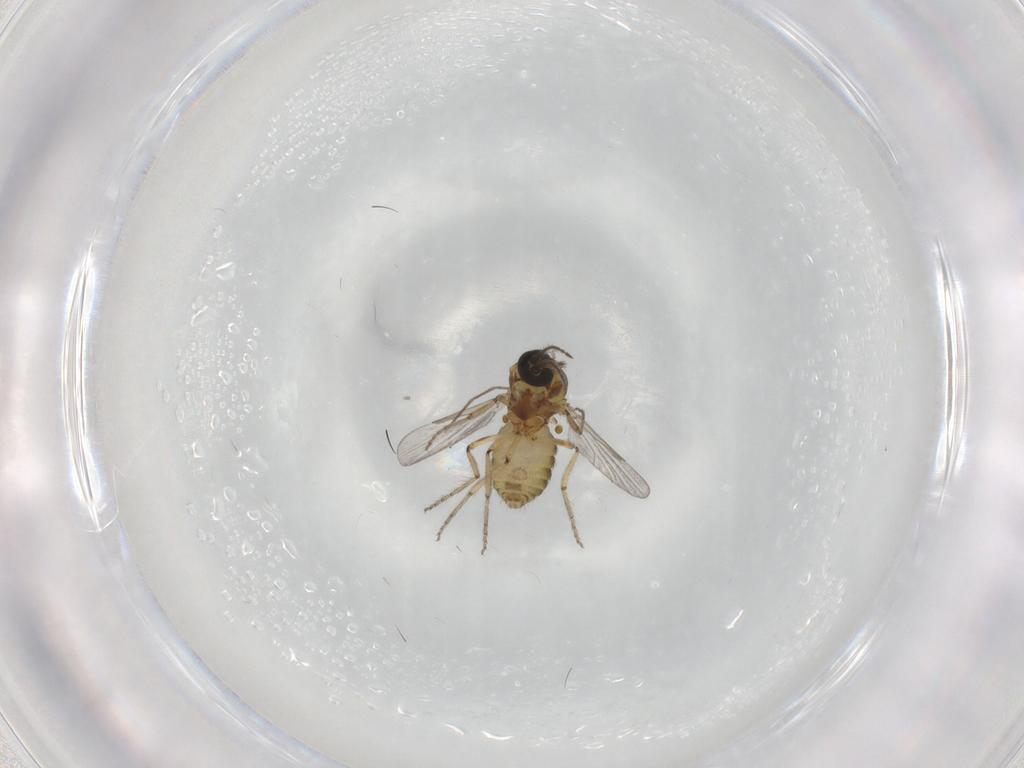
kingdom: Animalia
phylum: Arthropoda
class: Insecta
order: Diptera
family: Ceratopogonidae
